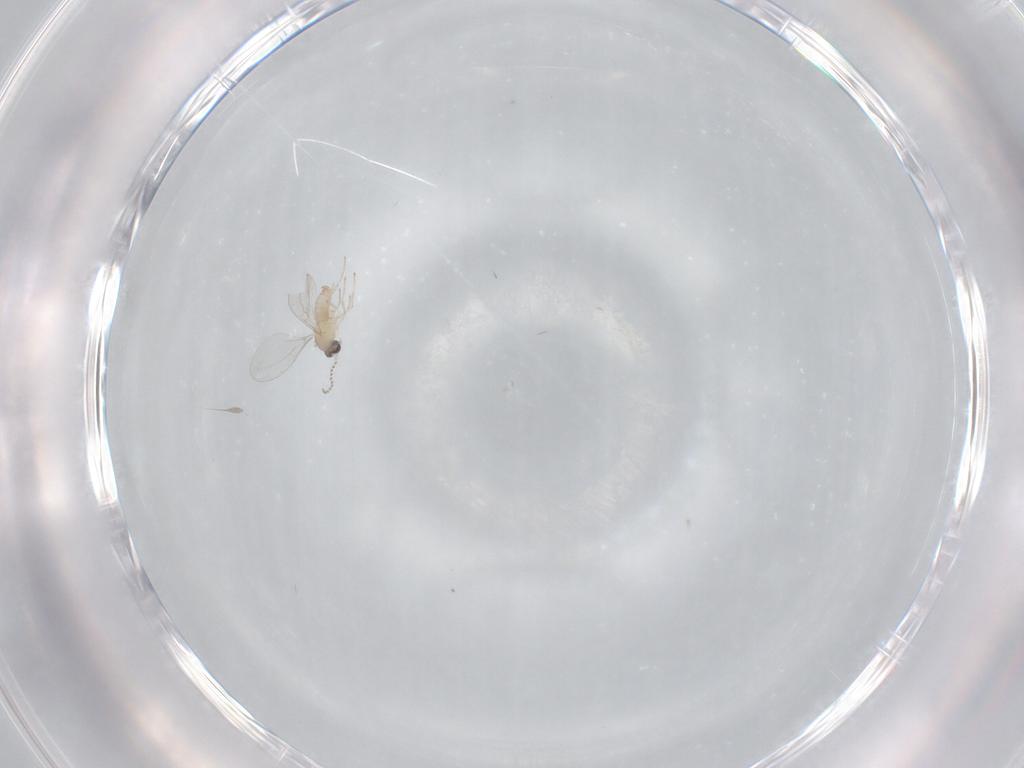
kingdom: Animalia
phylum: Arthropoda
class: Insecta
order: Diptera
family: Cecidomyiidae
